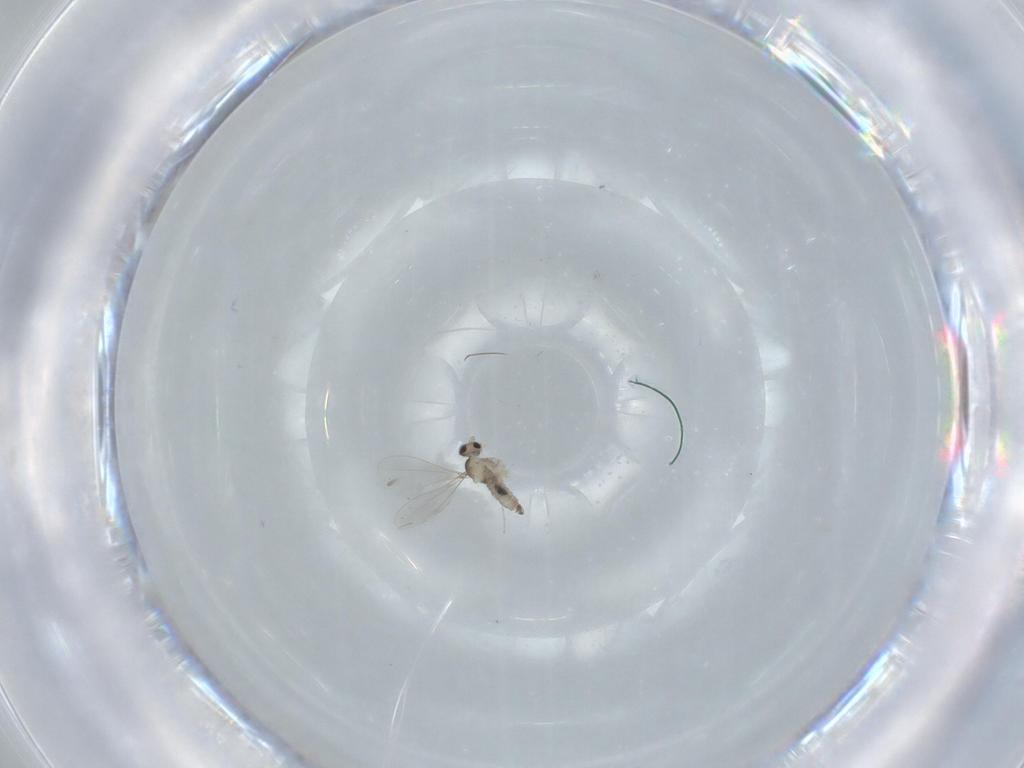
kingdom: Animalia
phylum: Arthropoda
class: Insecta
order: Diptera
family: Cecidomyiidae
